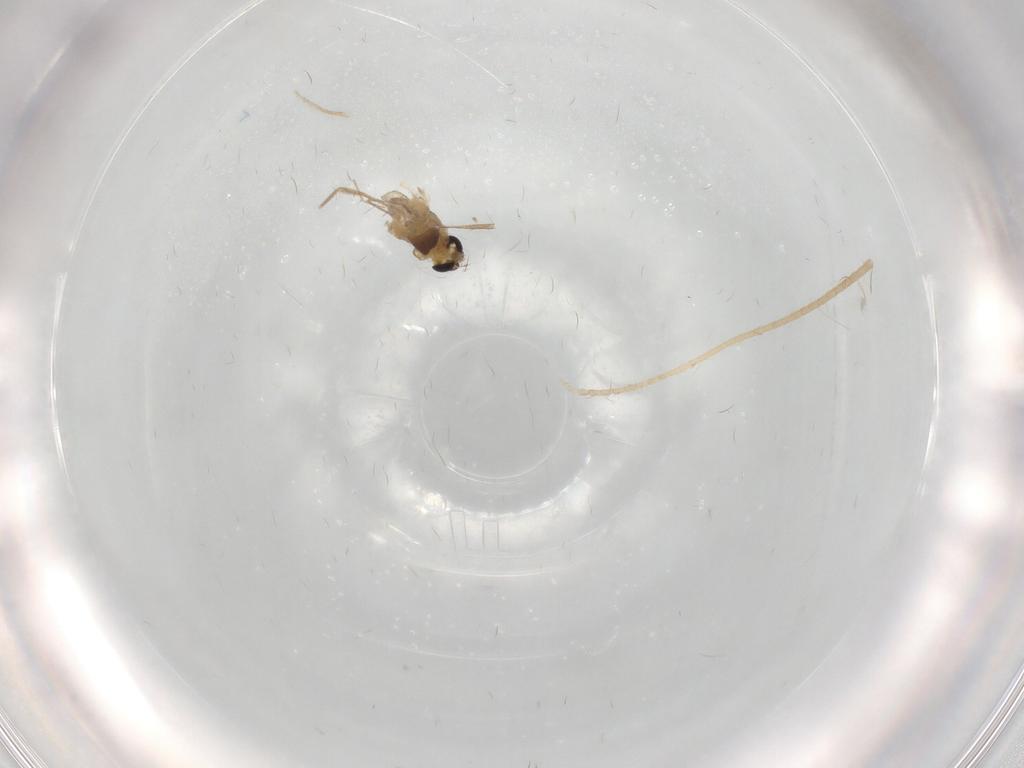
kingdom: Animalia
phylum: Arthropoda
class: Insecta
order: Diptera
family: Chironomidae
